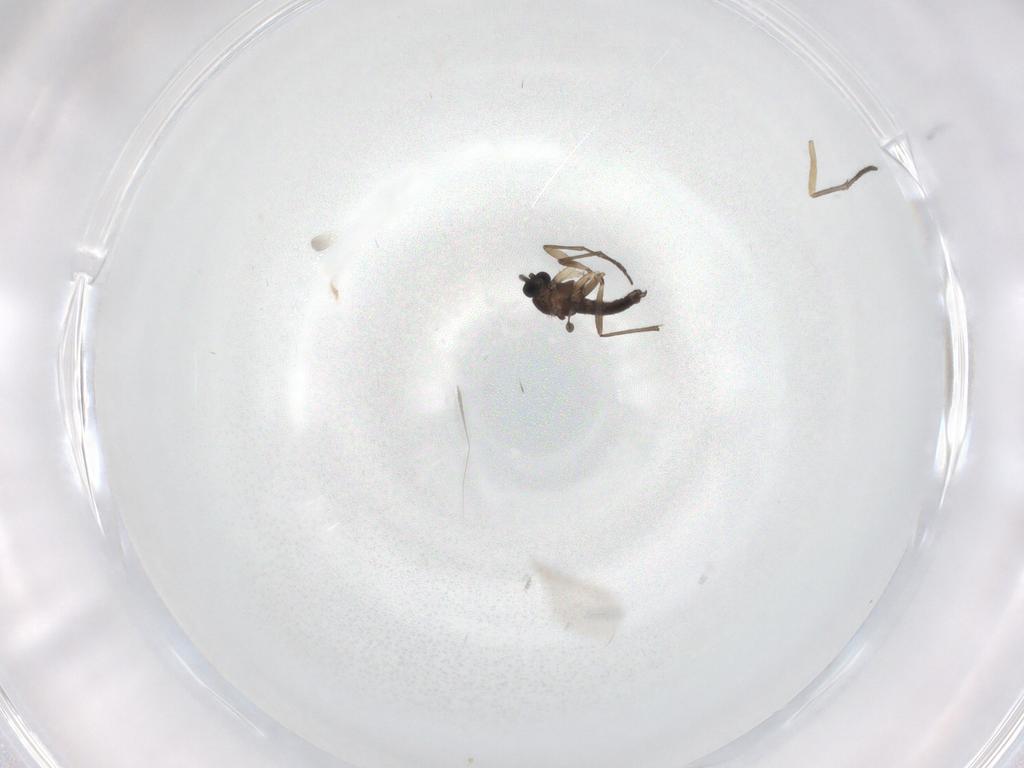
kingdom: Animalia
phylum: Arthropoda
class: Insecta
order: Diptera
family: Sciaridae
